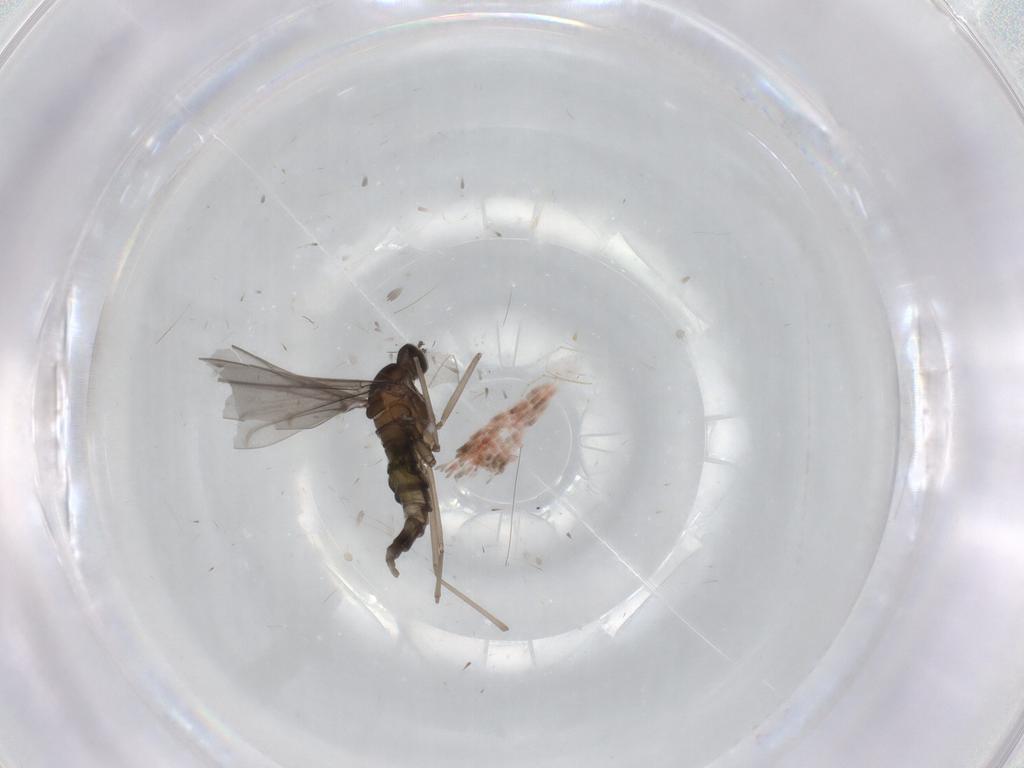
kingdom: Animalia
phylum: Arthropoda
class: Insecta
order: Diptera
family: Cecidomyiidae
